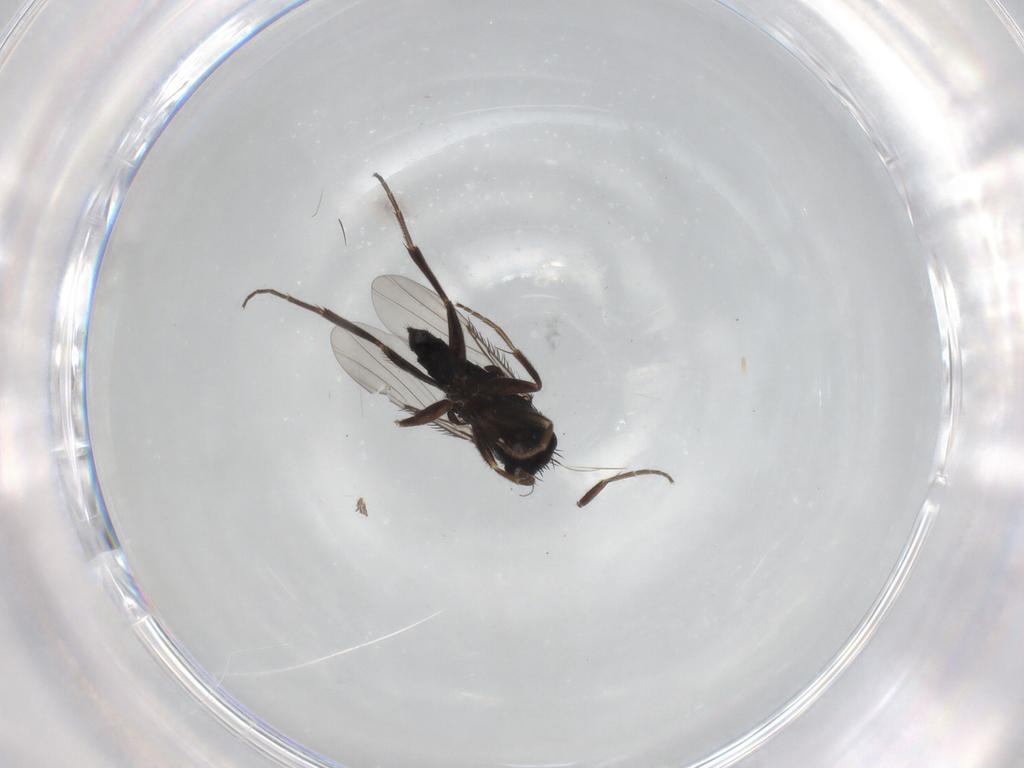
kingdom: Animalia
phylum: Arthropoda
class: Insecta
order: Diptera
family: Phoridae
